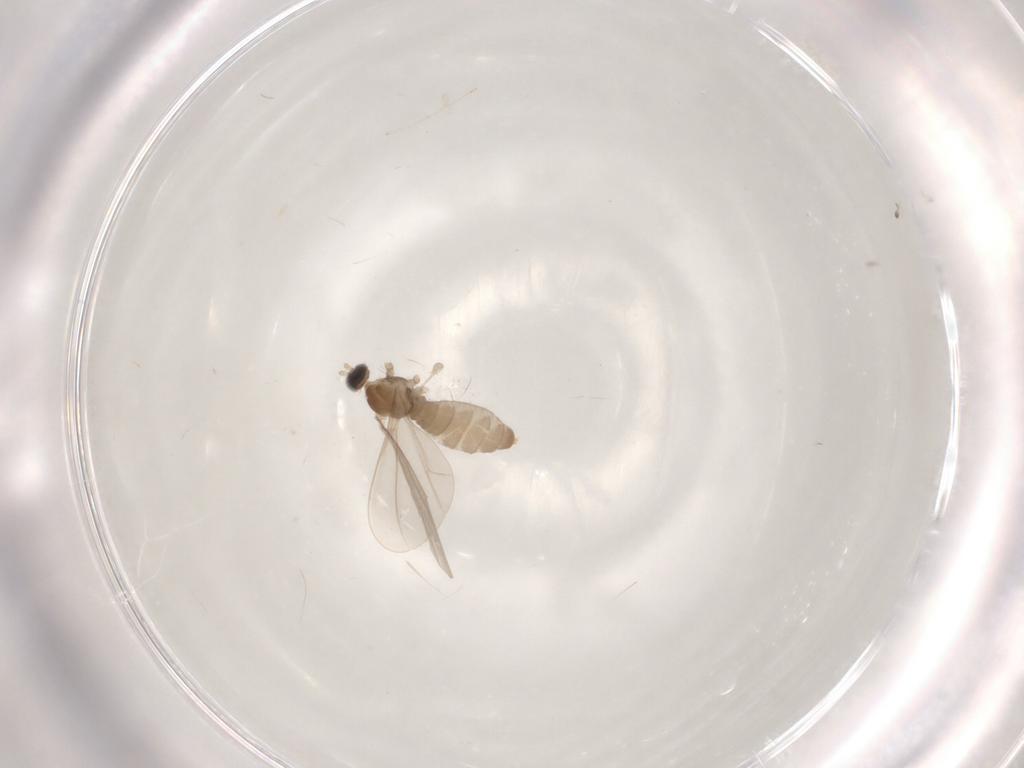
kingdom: Animalia
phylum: Arthropoda
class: Insecta
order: Diptera
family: Cecidomyiidae
